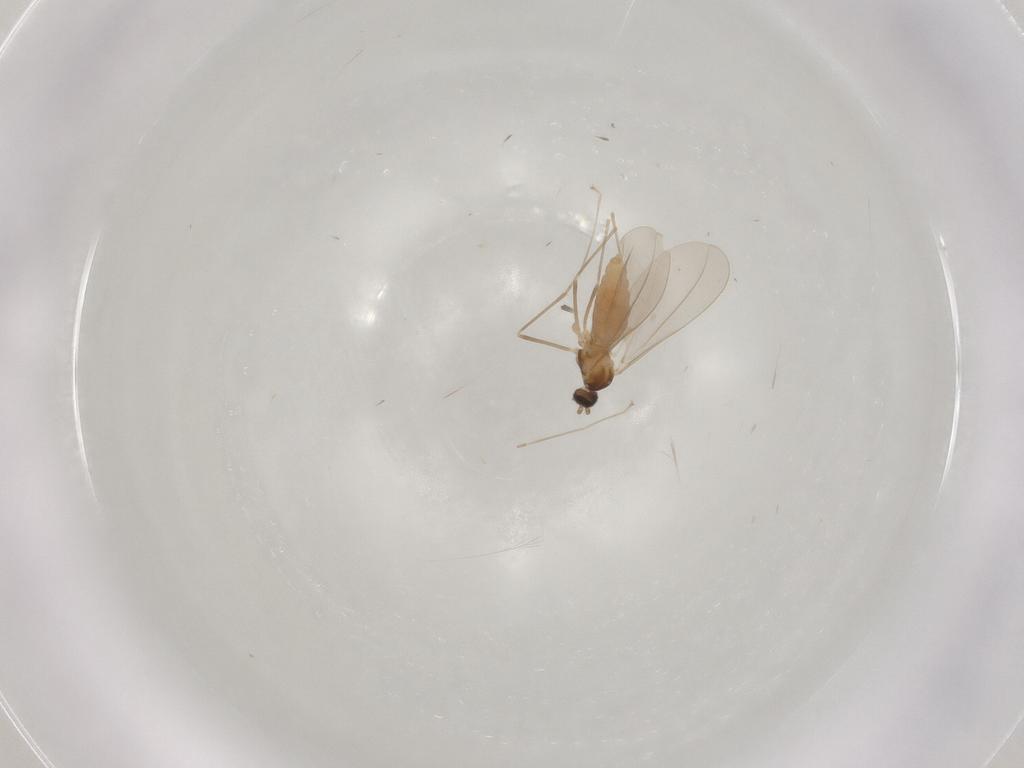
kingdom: Animalia
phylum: Arthropoda
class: Insecta
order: Diptera
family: Cecidomyiidae
